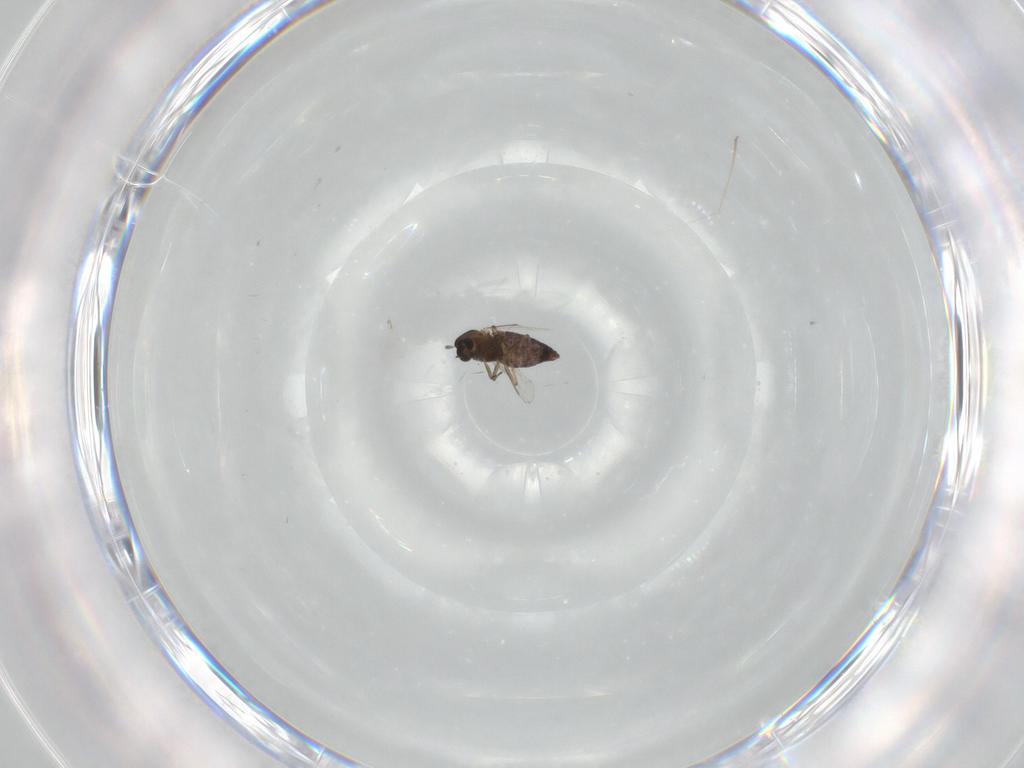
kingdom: Animalia
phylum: Arthropoda
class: Insecta
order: Diptera
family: Chironomidae
